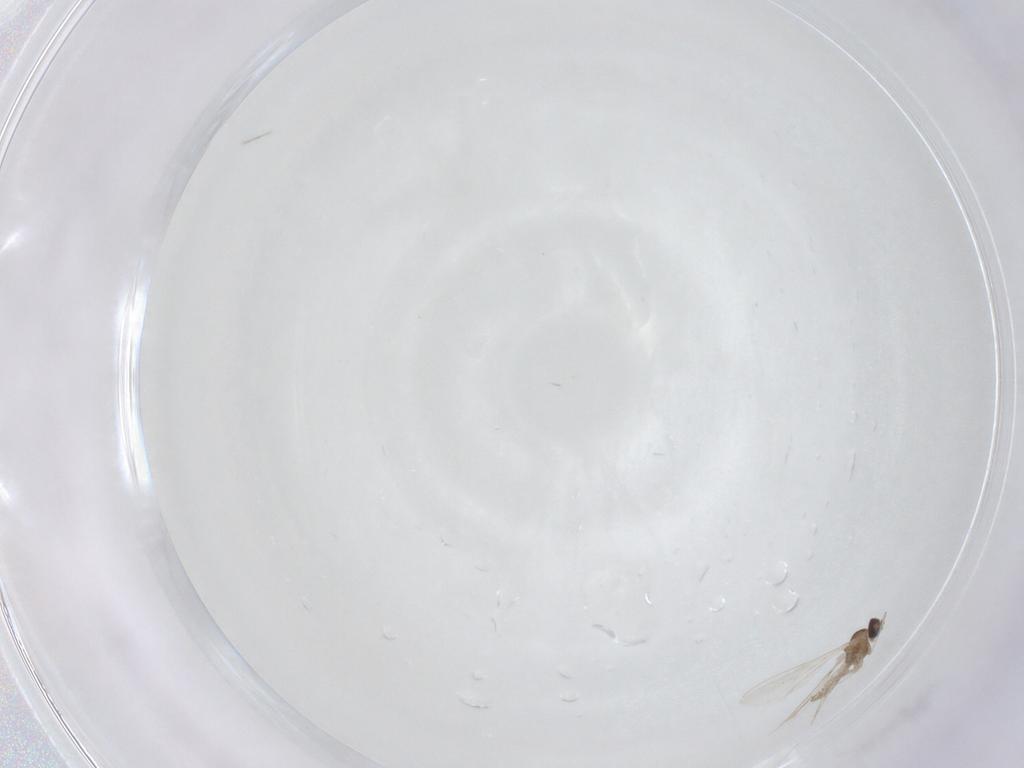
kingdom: Animalia
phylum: Arthropoda
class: Insecta
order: Diptera
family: Cecidomyiidae
